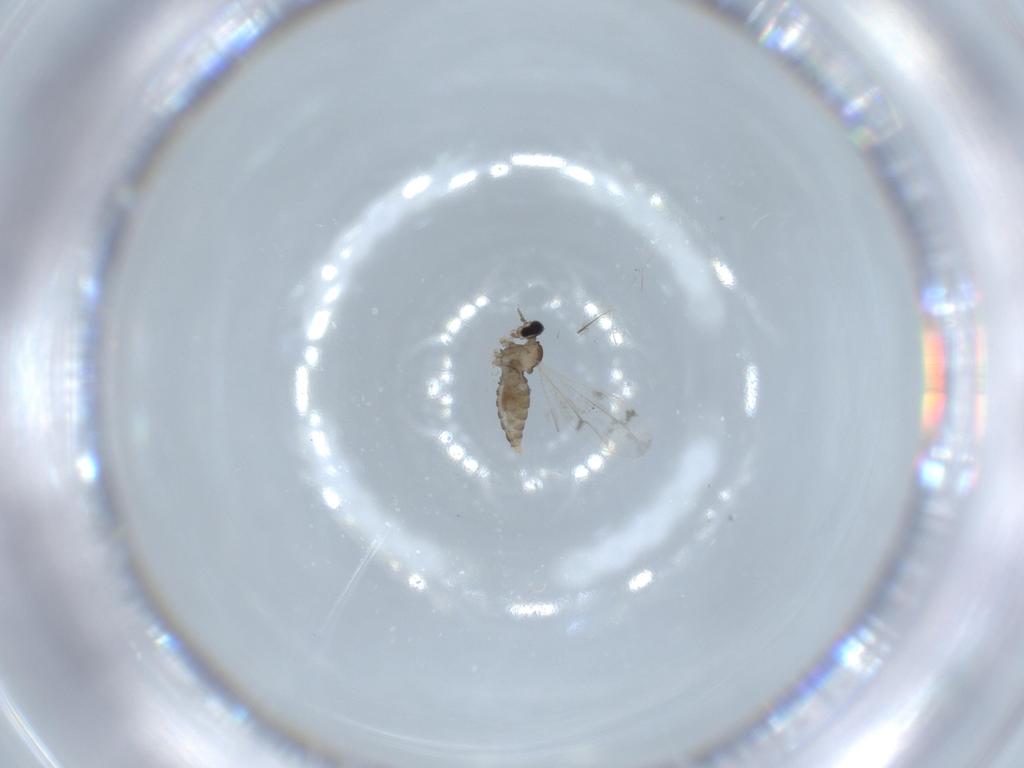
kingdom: Animalia
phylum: Arthropoda
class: Insecta
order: Diptera
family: Cecidomyiidae
